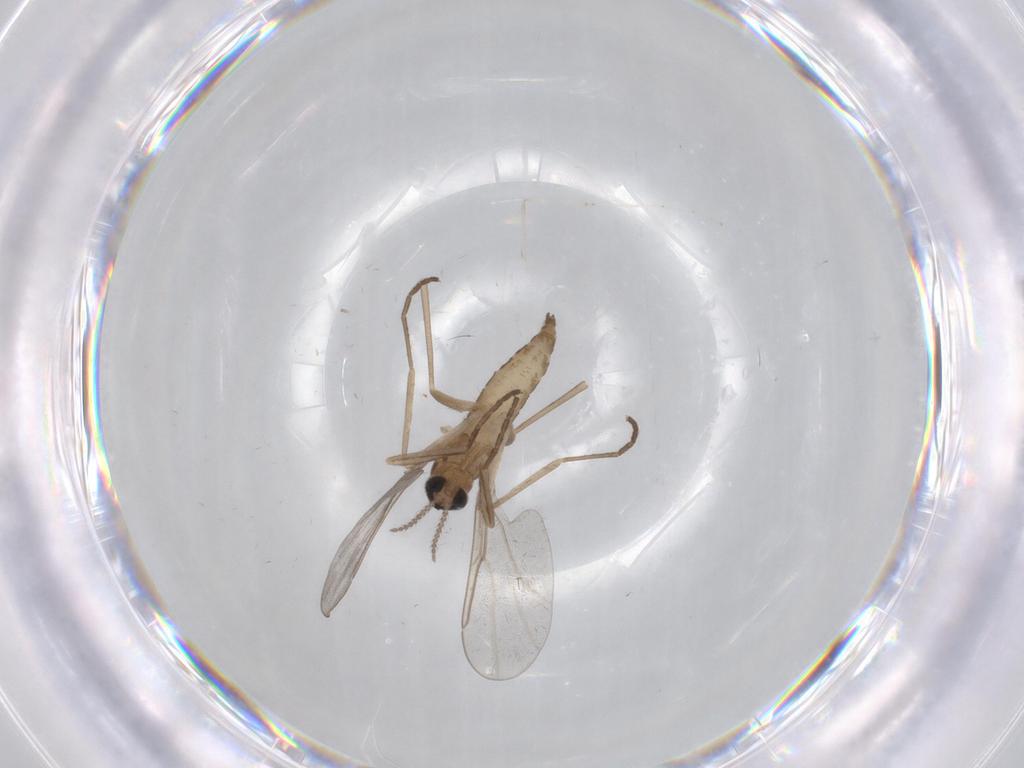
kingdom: Animalia
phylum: Arthropoda
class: Insecta
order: Diptera
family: Cecidomyiidae
